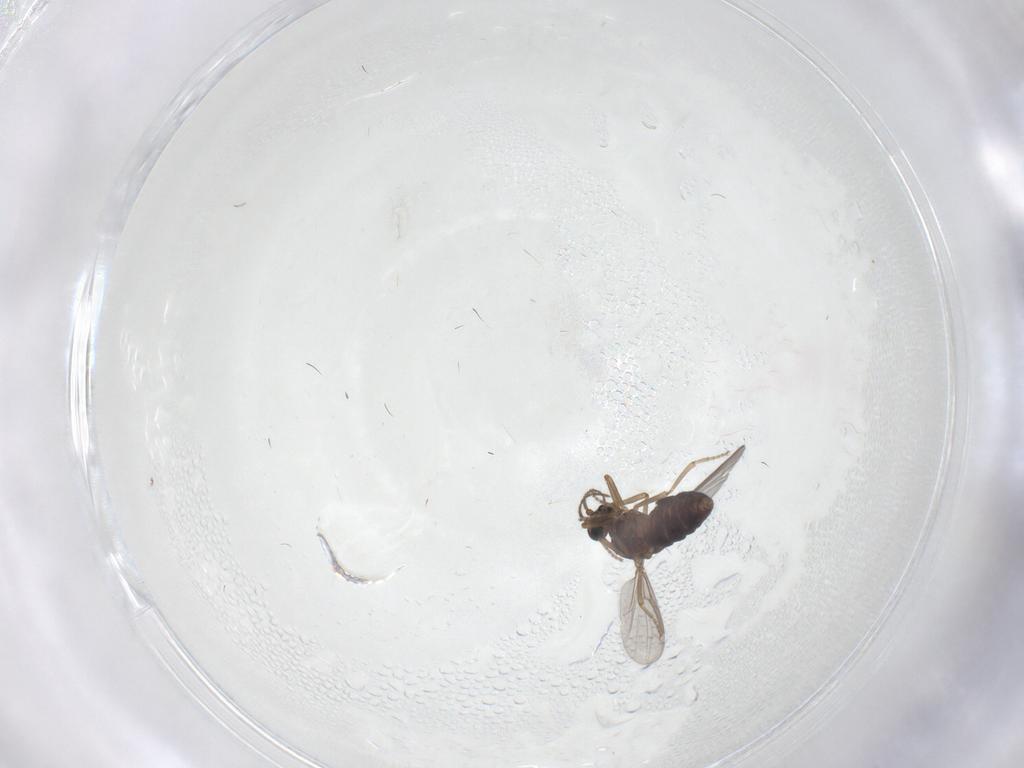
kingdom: Animalia
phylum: Arthropoda
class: Insecta
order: Diptera
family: Ceratopogonidae
